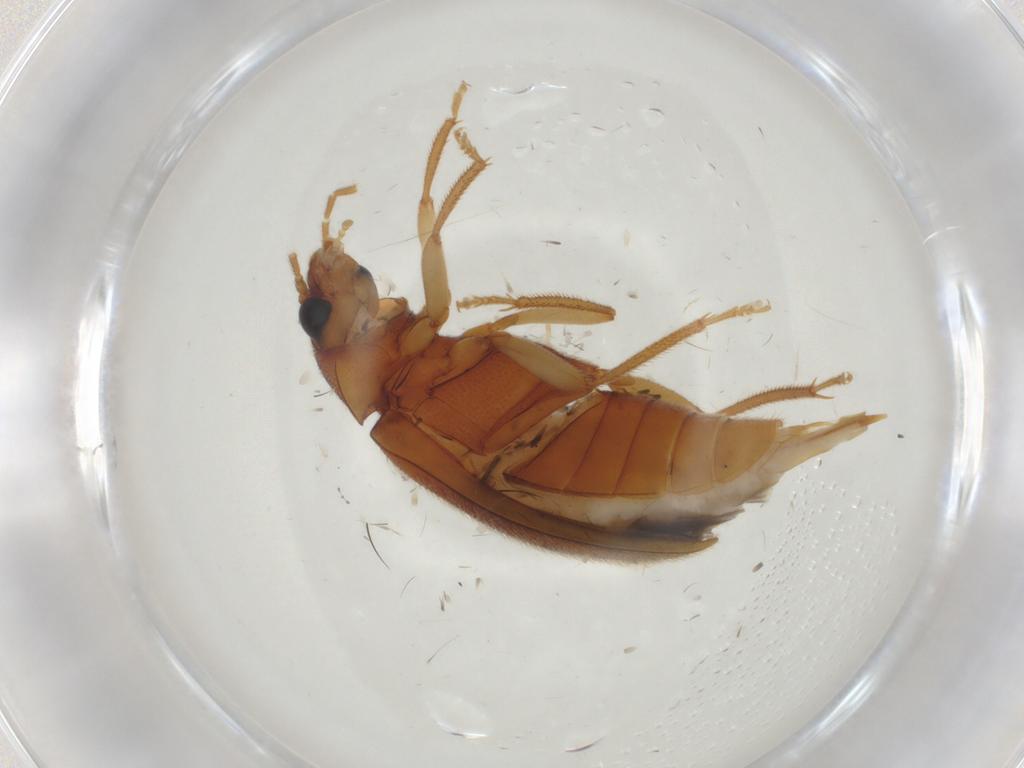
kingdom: Animalia
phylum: Arthropoda
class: Insecta
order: Coleoptera
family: Ptilodactylidae
